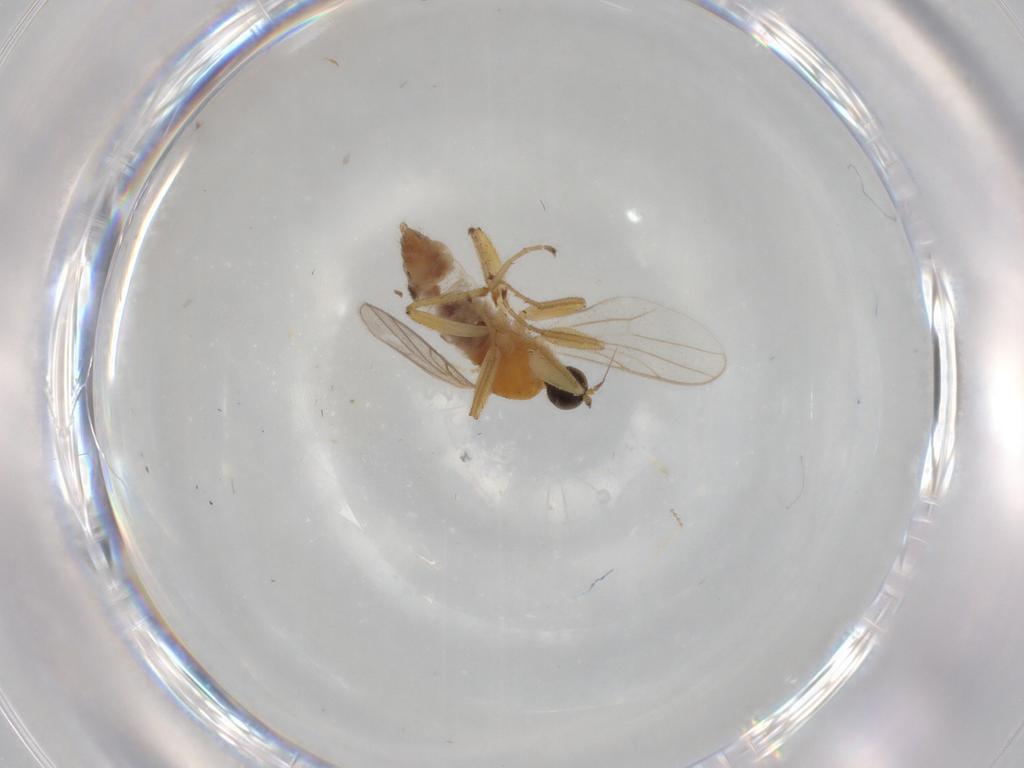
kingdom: Animalia
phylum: Arthropoda
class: Insecta
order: Diptera
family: Hybotidae
